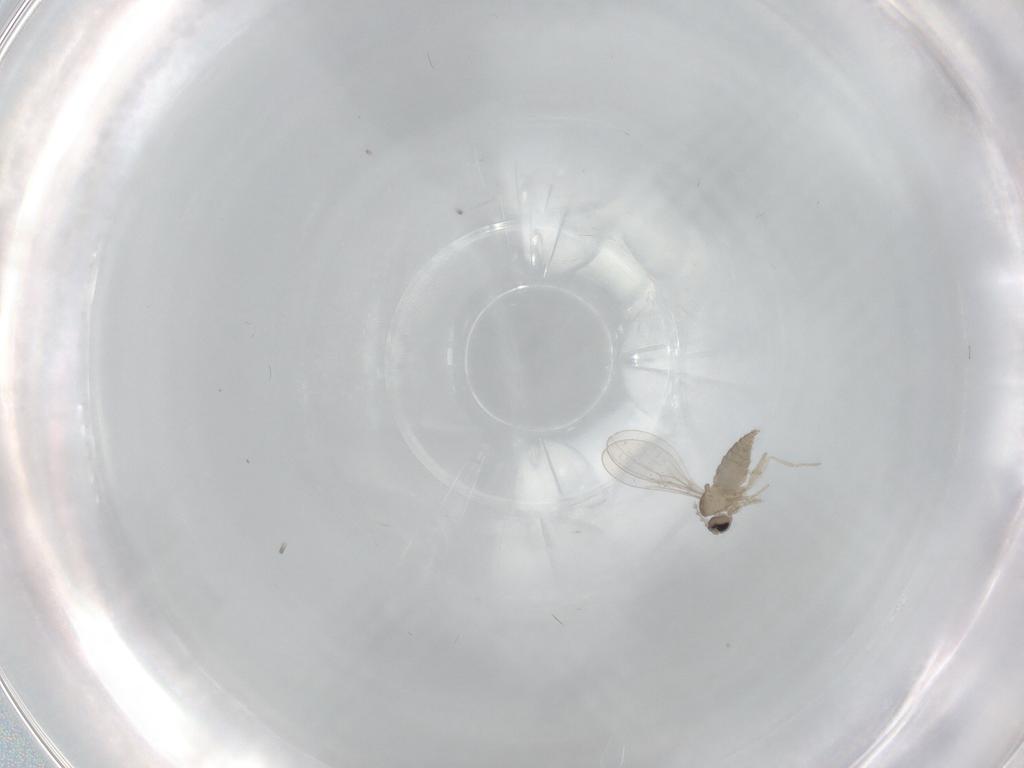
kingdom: Animalia
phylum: Arthropoda
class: Insecta
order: Diptera
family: Cecidomyiidae
